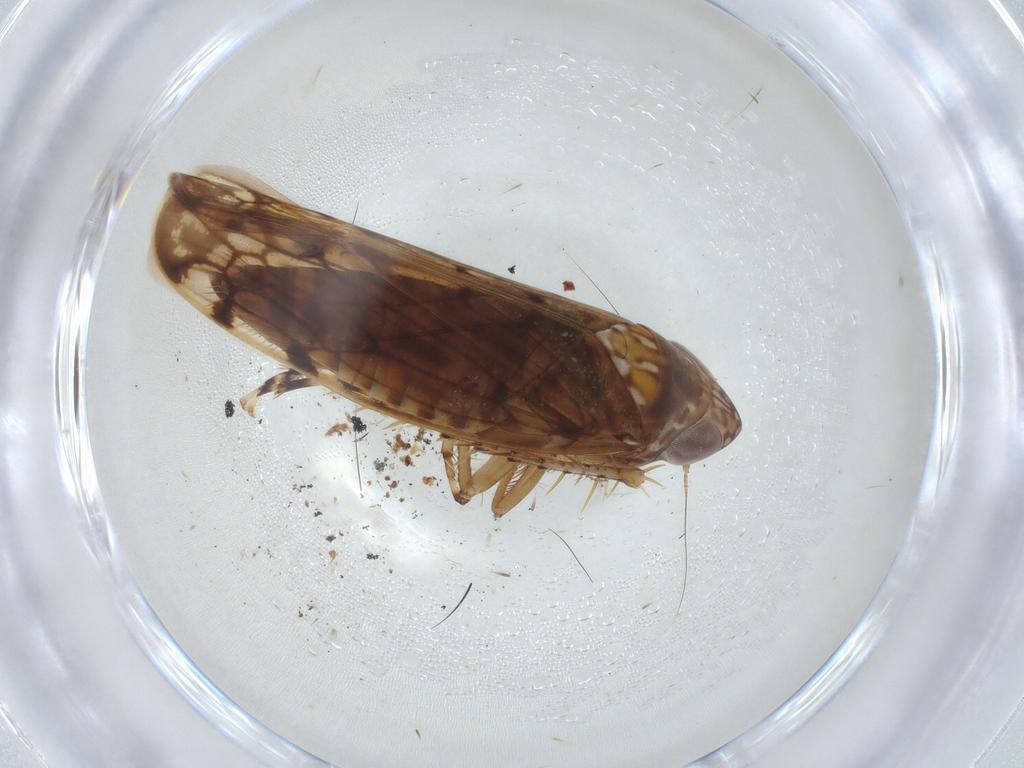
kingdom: Animalia
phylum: Arthropoda
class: Insecta
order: Hemiptera
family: Cicadellidae
